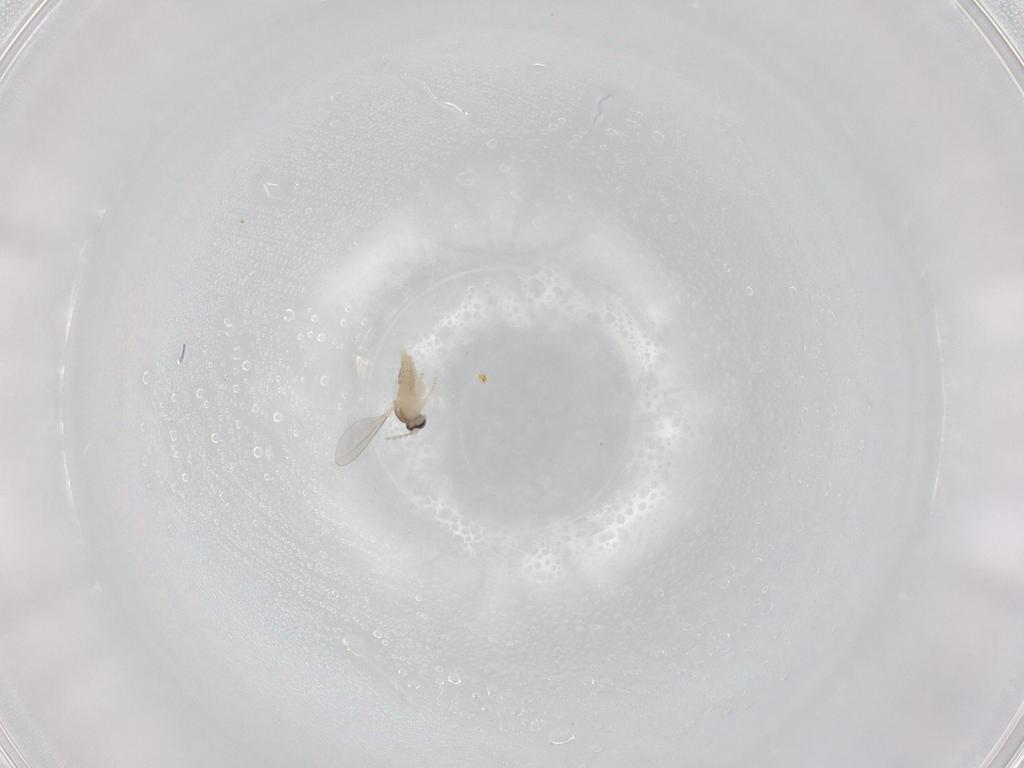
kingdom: Animalia
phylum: Arthropoda
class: Insecta
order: Diptera
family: Cecidomyiidae
